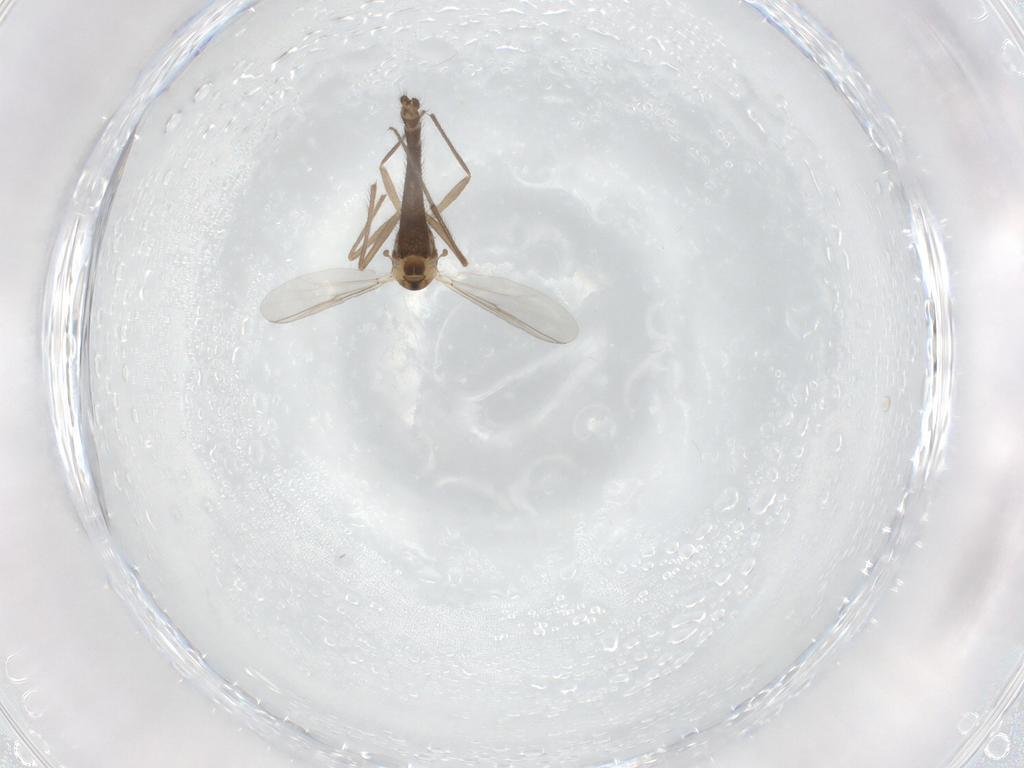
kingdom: Animalia
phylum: Arthropoda
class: Insecta
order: Diptera
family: Chironomidae
